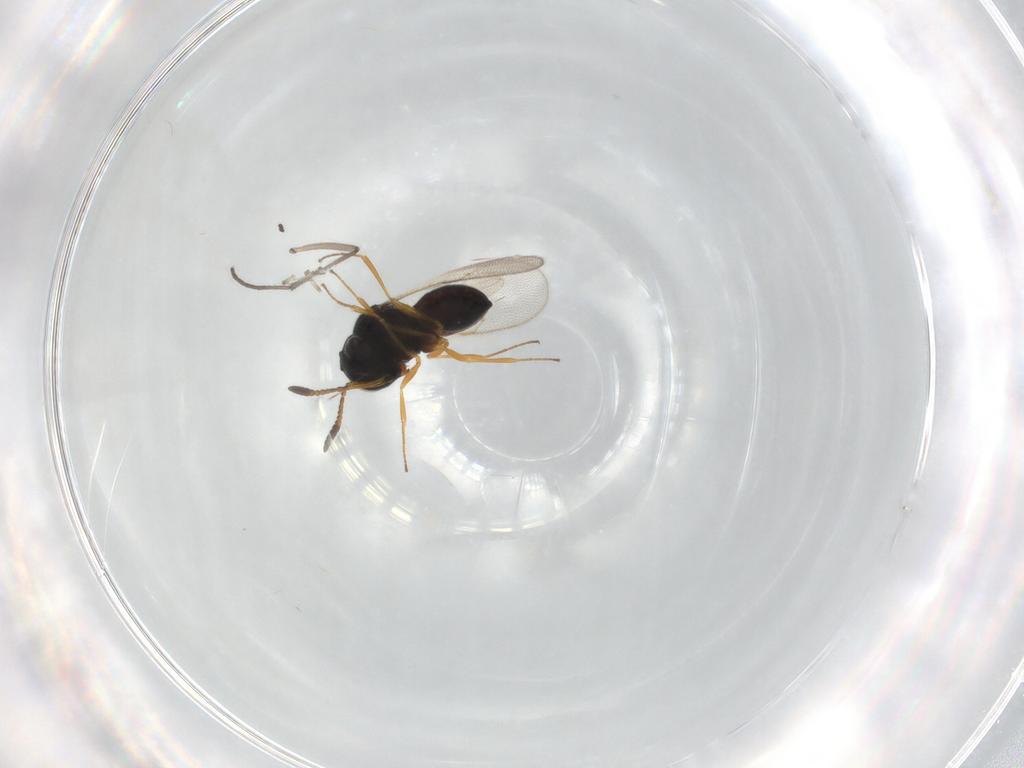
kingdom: Animalia
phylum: Arthropoda
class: Insecta
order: Hymenoptera
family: Scelionidae
